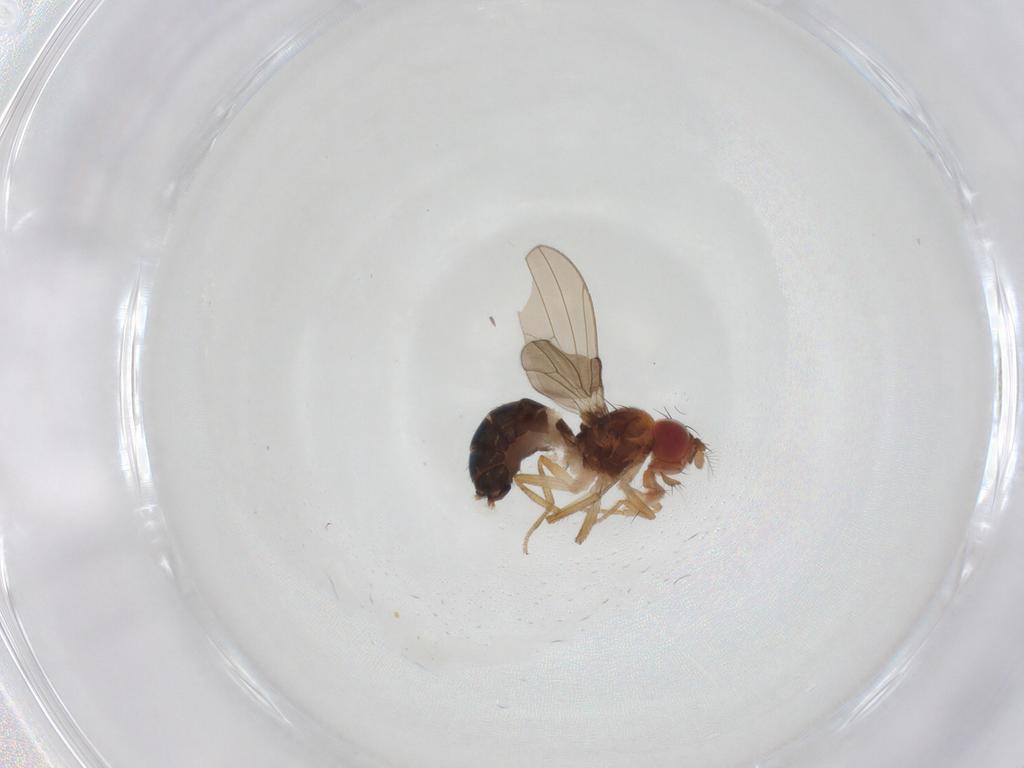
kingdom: Animalia
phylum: Arthropoda
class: Insecta
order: Diptera
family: Drosophilidae
